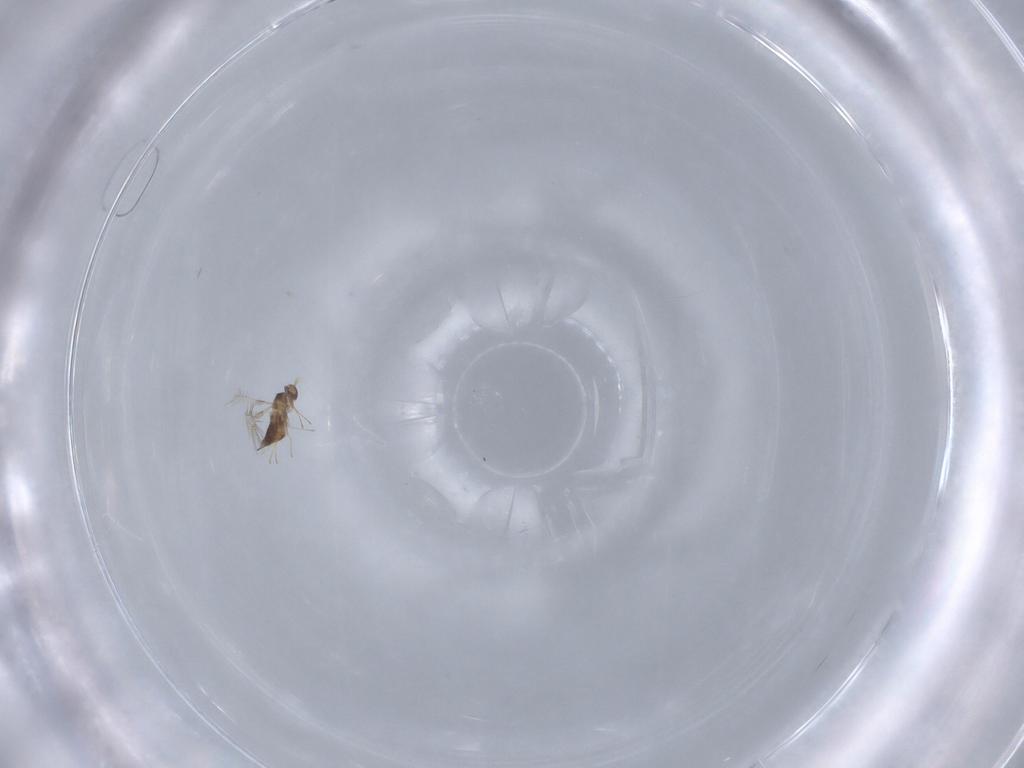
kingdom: Animalia
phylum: Arthropoda
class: Insecta
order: Hymenoptera
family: Mymaridae
